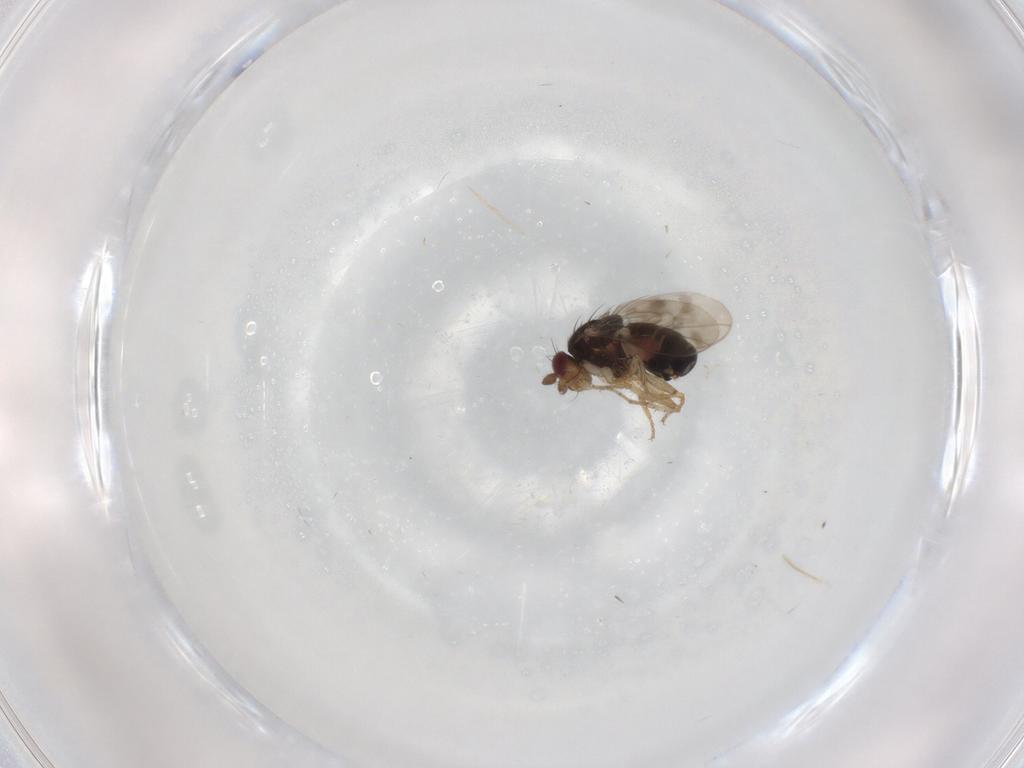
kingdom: Animalia
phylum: Arthropoda
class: Insecta
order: Diptera
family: Sphaeroceridae
